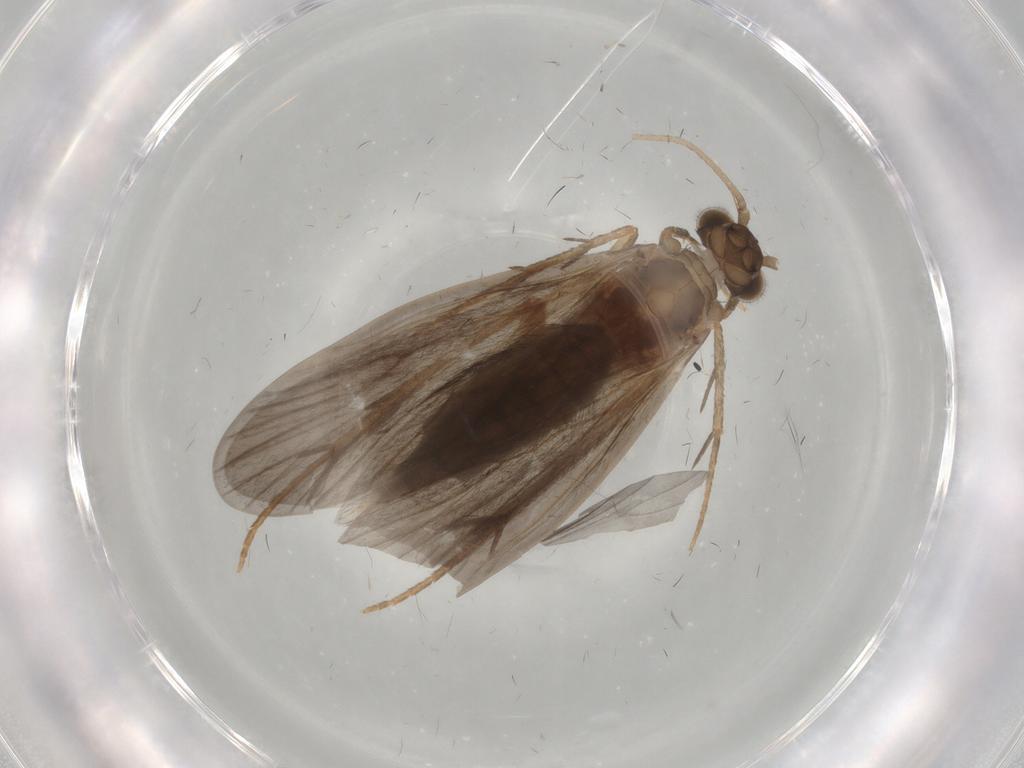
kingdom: Animalia
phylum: Arthropoda
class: Insecta
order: Trichoptera
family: Philopotamidae
